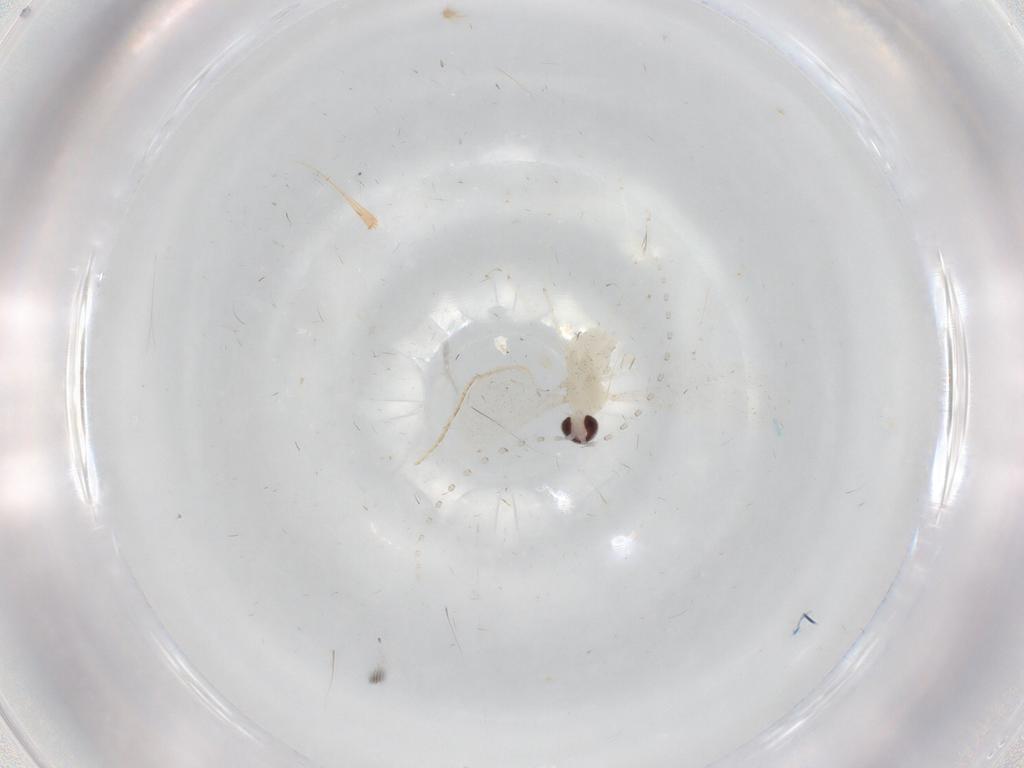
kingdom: Animalia
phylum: Arthropoda
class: Insecta
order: Diptera
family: Cecidomyiidae
